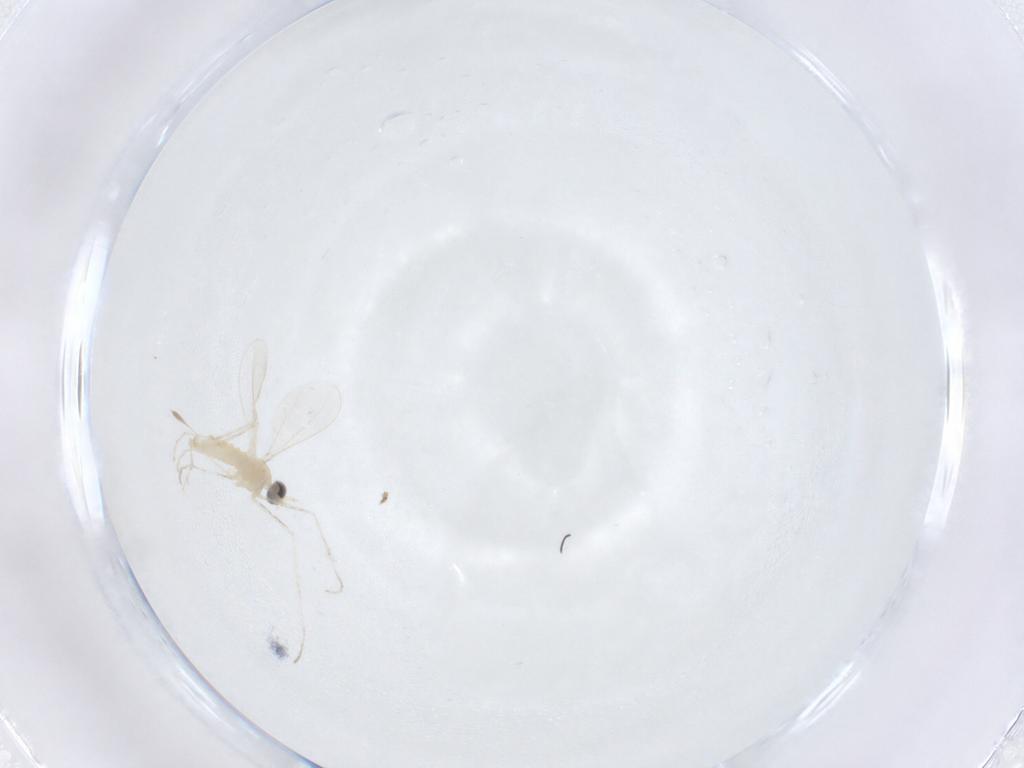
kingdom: Animalia
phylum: Arthropoda
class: Insecta
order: Diptera
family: Cecidomyiidae
